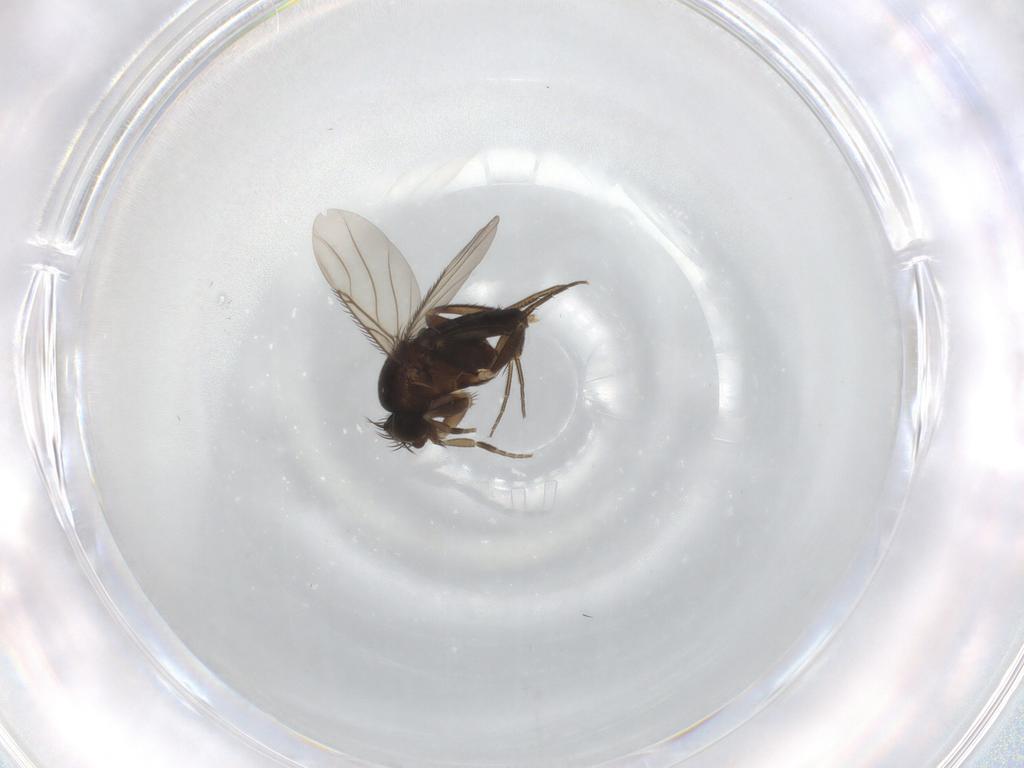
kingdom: Animalia
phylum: Arthropoda
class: Insecta
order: Diptera
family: Phoridae
